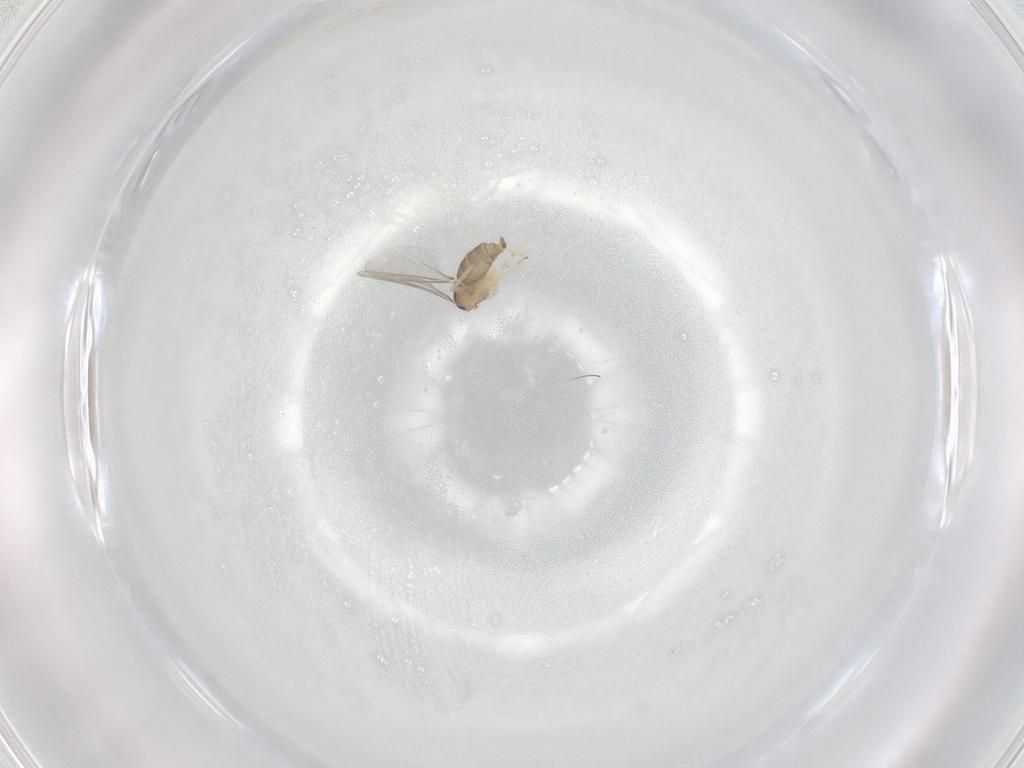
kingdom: Animalia
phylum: Arthropoda
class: Insecta
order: Diptera
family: Cecidomyiidae
